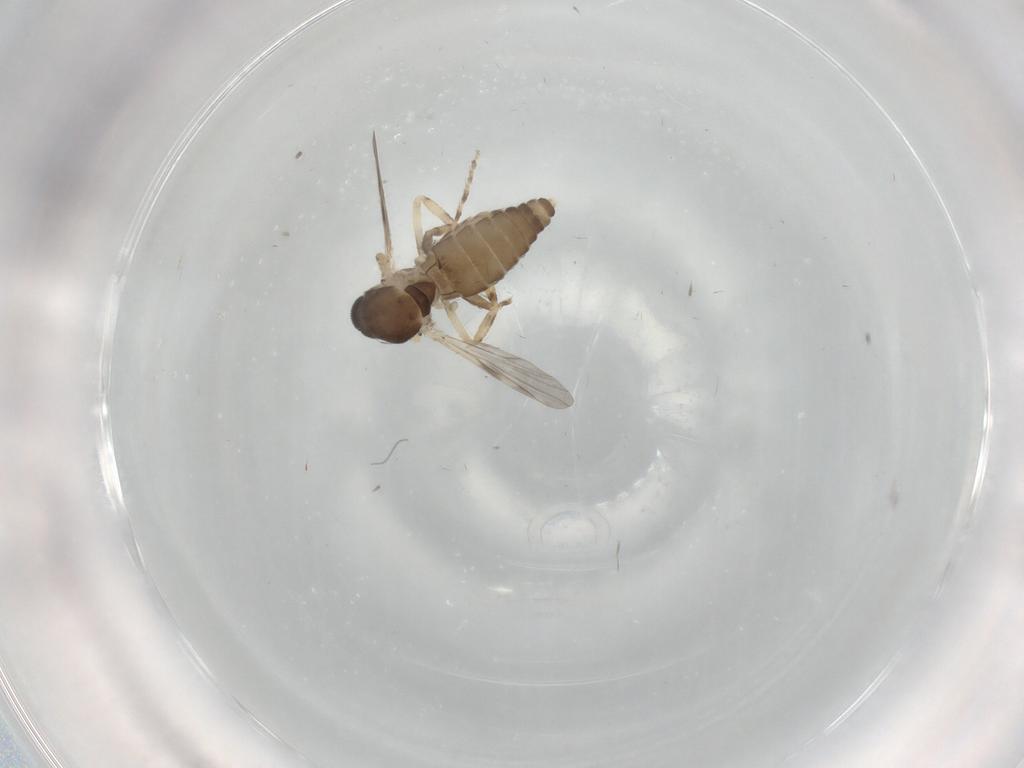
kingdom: Animalia
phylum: Arthropoda
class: Insecta
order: Diptera
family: Ceratopogonidae
